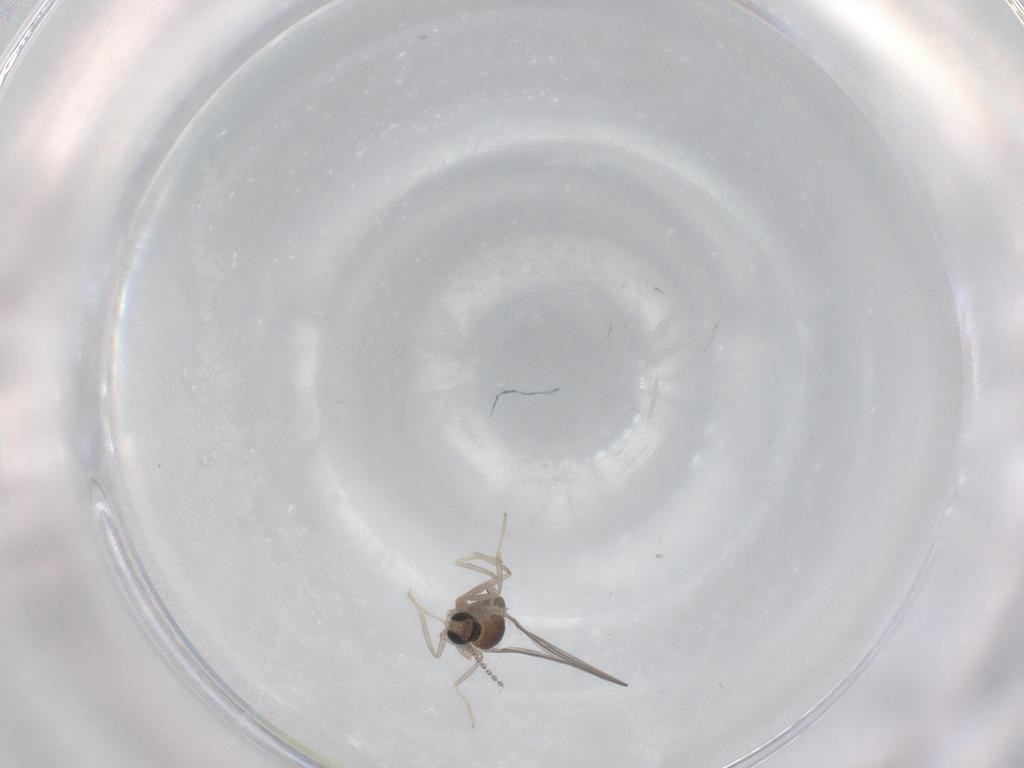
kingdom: Animalia
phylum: Arthropoda
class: Insecta
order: Diptera
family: Cecidomyiidae
